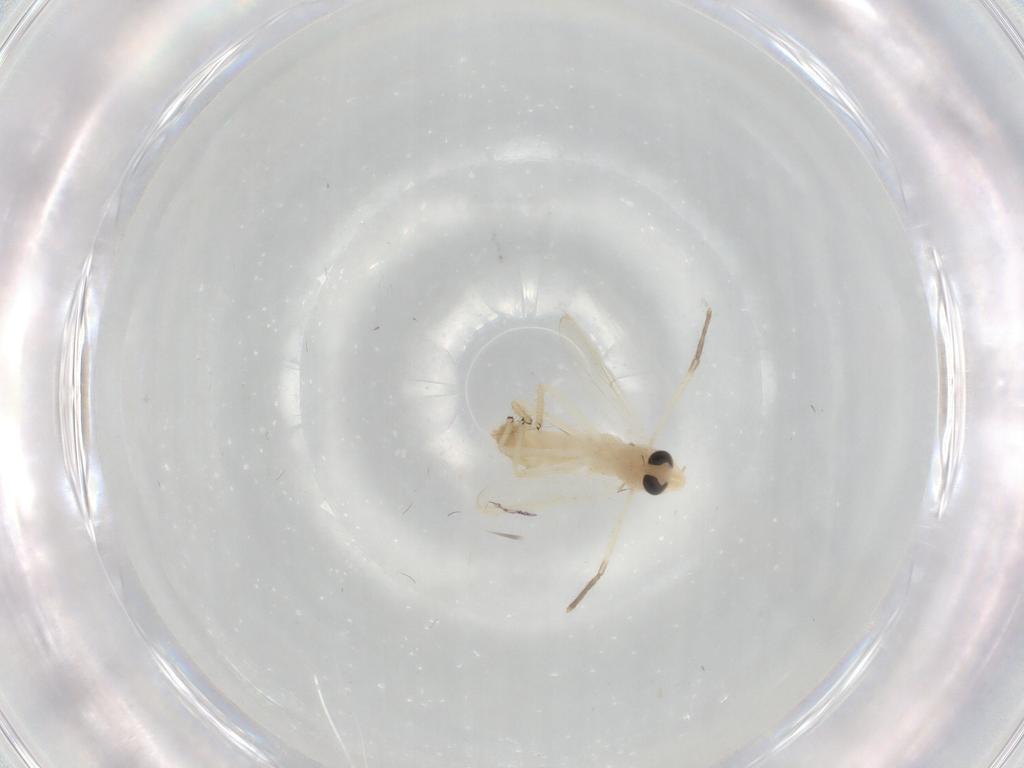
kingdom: Animalia
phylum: Arthropoda
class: Insecta
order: Diptera
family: Chironomidae
